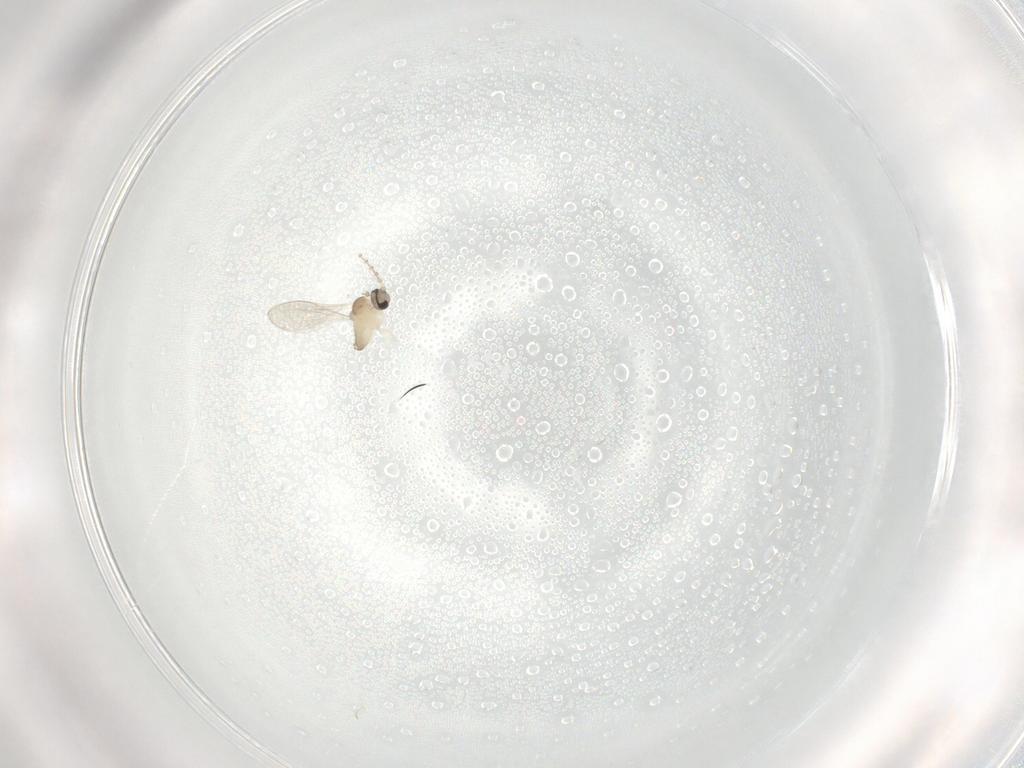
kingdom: Animalia
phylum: Arthropoda
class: Insecta
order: Diptera
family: Cecidomyiidae
